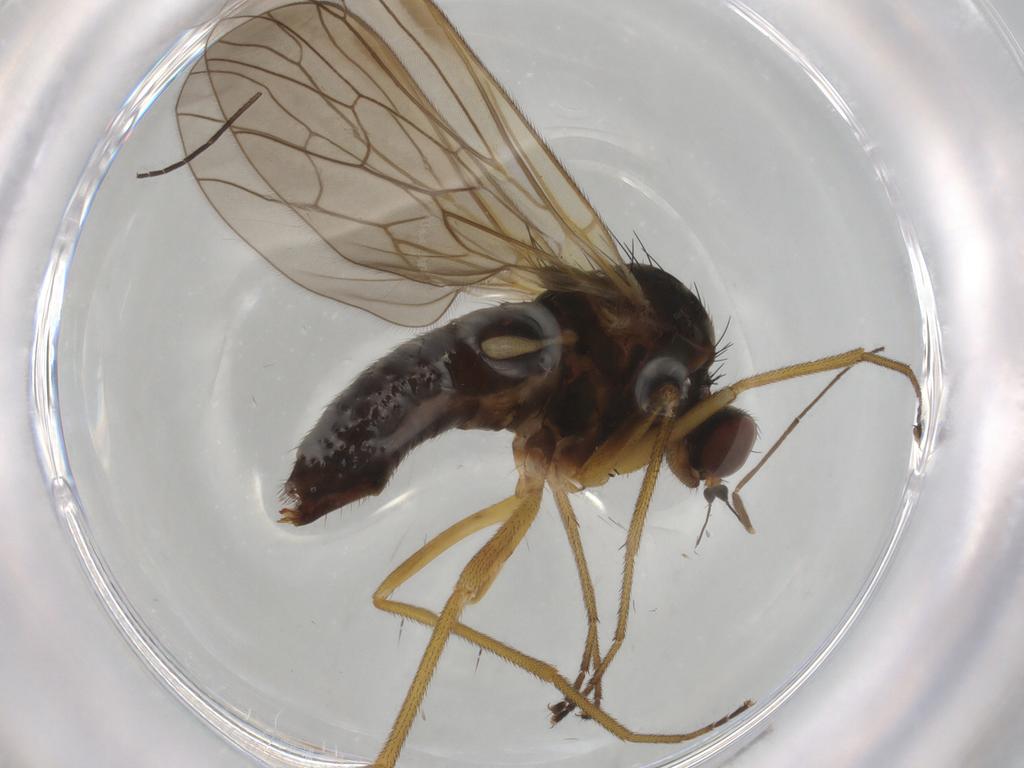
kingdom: Animalia
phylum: Arthropoda
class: Insecta
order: Diptera
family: Brachystomatidae
